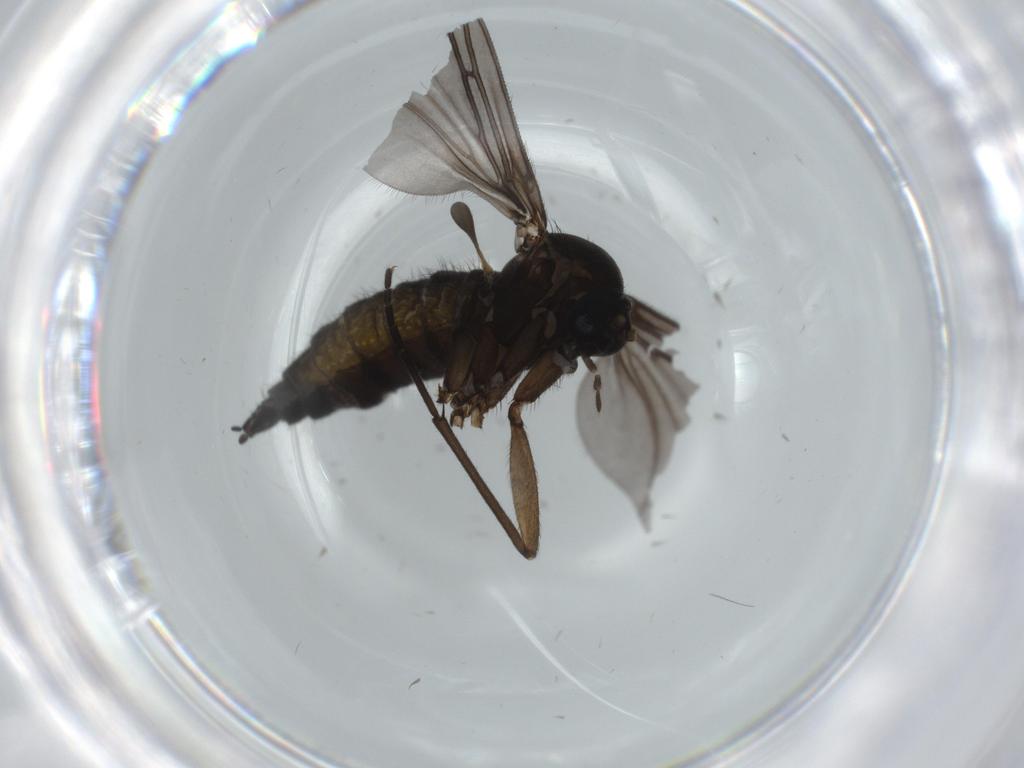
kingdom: Animalia
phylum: Arthropoda
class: Insecta
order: Diptera
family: Sciaridae
